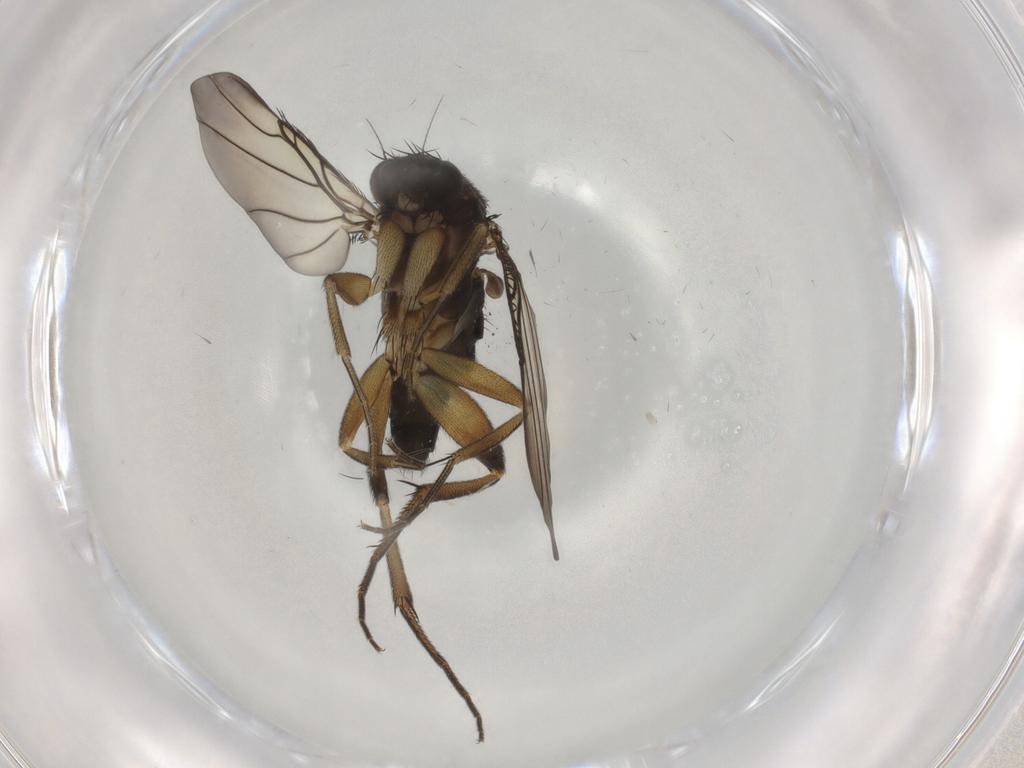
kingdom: Animalia
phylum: Arthropoda
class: Insecta
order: Diptera
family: Phoridae
